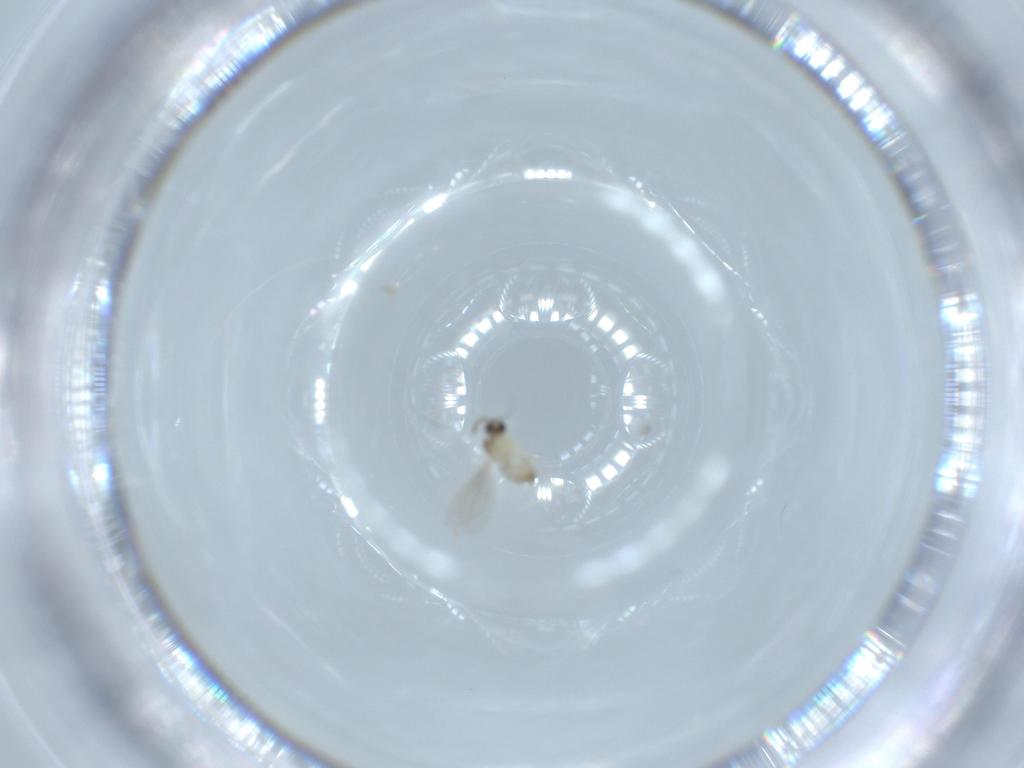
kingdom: Animalia
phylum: Arthropoda
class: Insecta
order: Diptera
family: Cecidomyiidae
